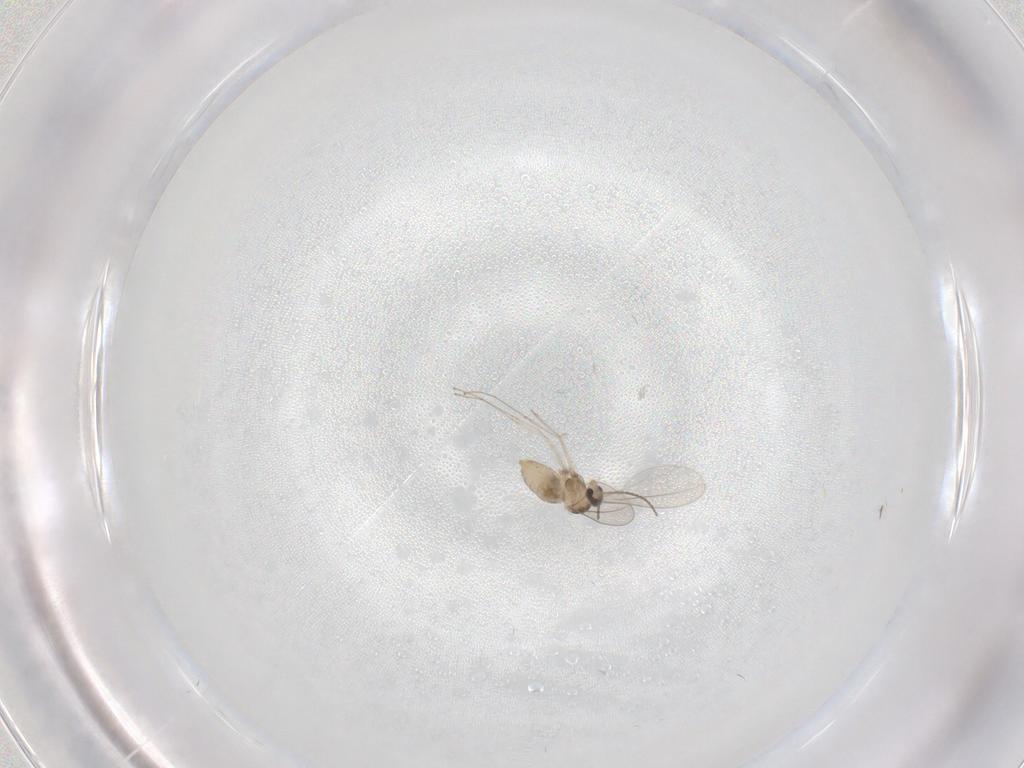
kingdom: Animalia
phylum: Arthropoda
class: Insecta
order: Diptera
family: Cecidomyiidae
